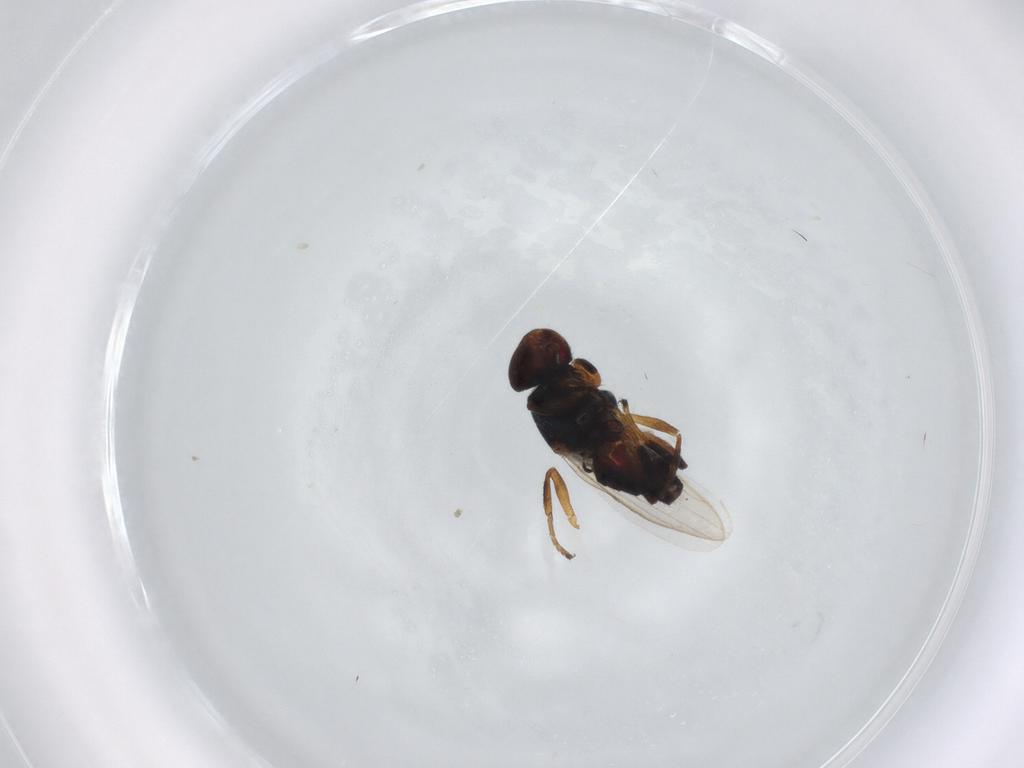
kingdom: Animalia
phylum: Arthropoda
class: Insecta
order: Diptera
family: Chloropidae
